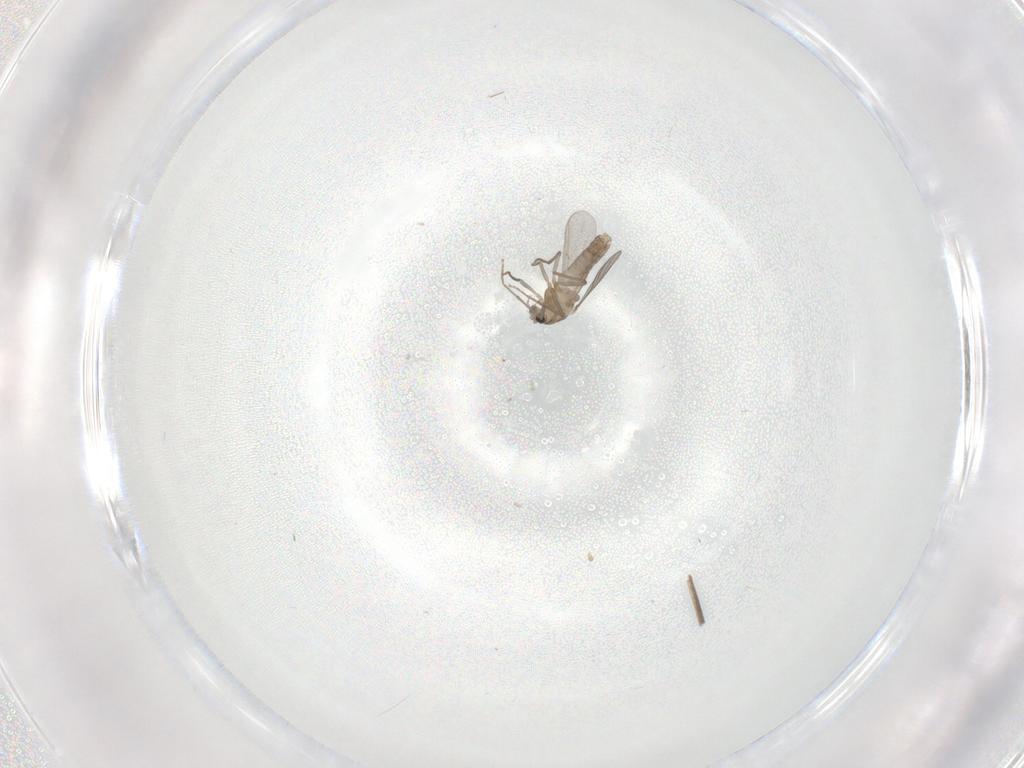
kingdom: Animalia
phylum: Arthropoda
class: Insecta
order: Diptera
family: Chironomidae
